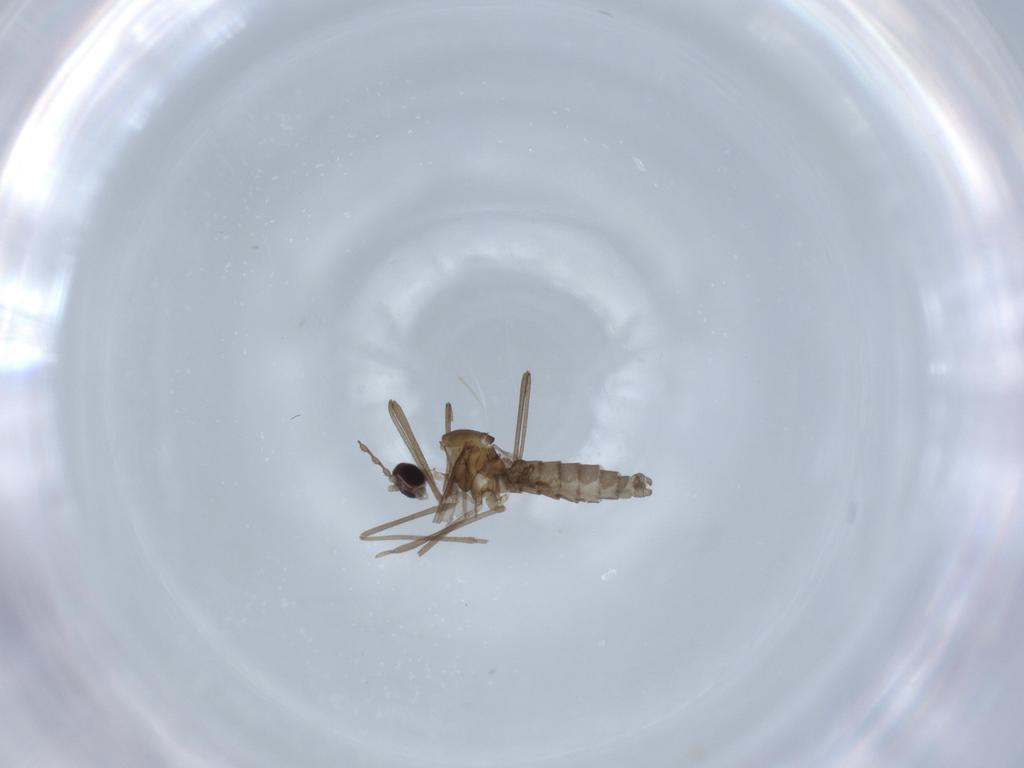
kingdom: Animalia
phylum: Arthropoda
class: Insecta
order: Diptera
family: Cecidomyiidae
